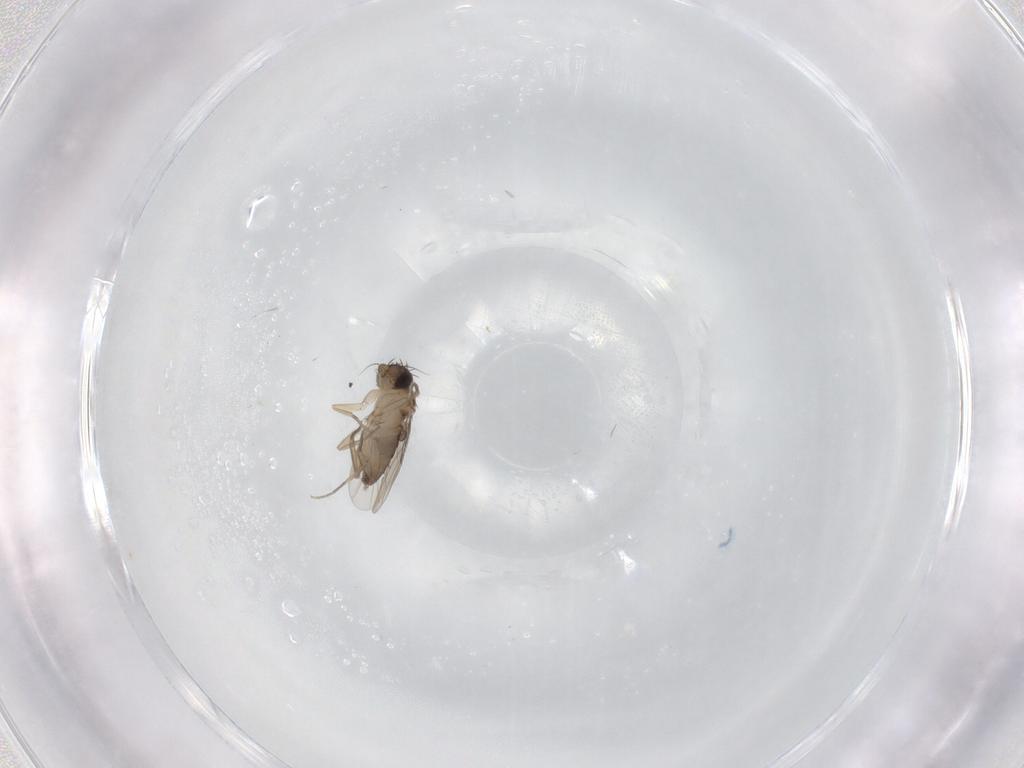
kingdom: Animalia
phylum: Arthropoda
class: Insecta
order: Diptera
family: Phoridae
